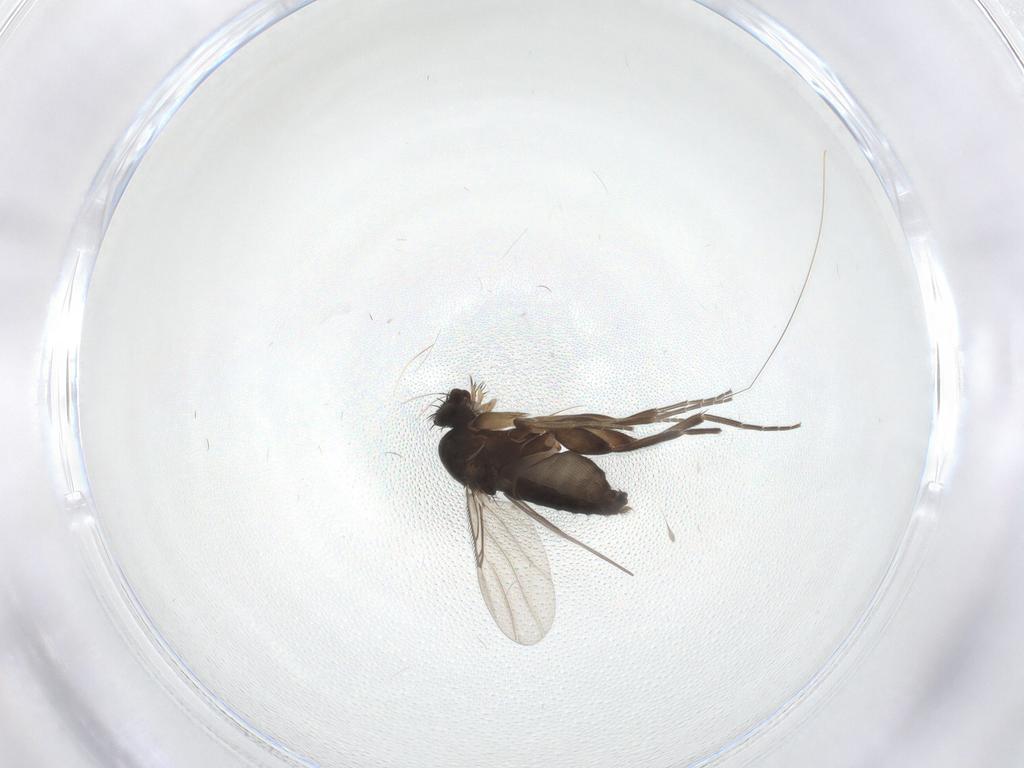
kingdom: Animalia
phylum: Arthropoda
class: Insecta
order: Diptera
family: Phoridae
